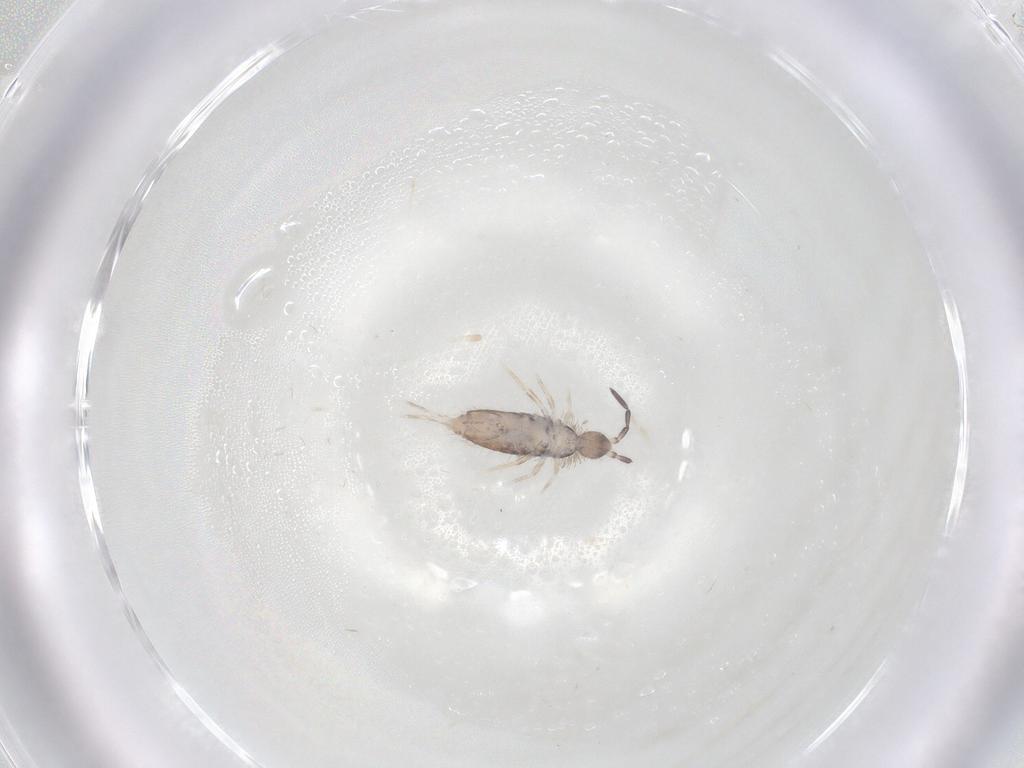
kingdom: Animalia
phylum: Arthropoda
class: Collembola
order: Poduromorpha
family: Hypogastruridae
